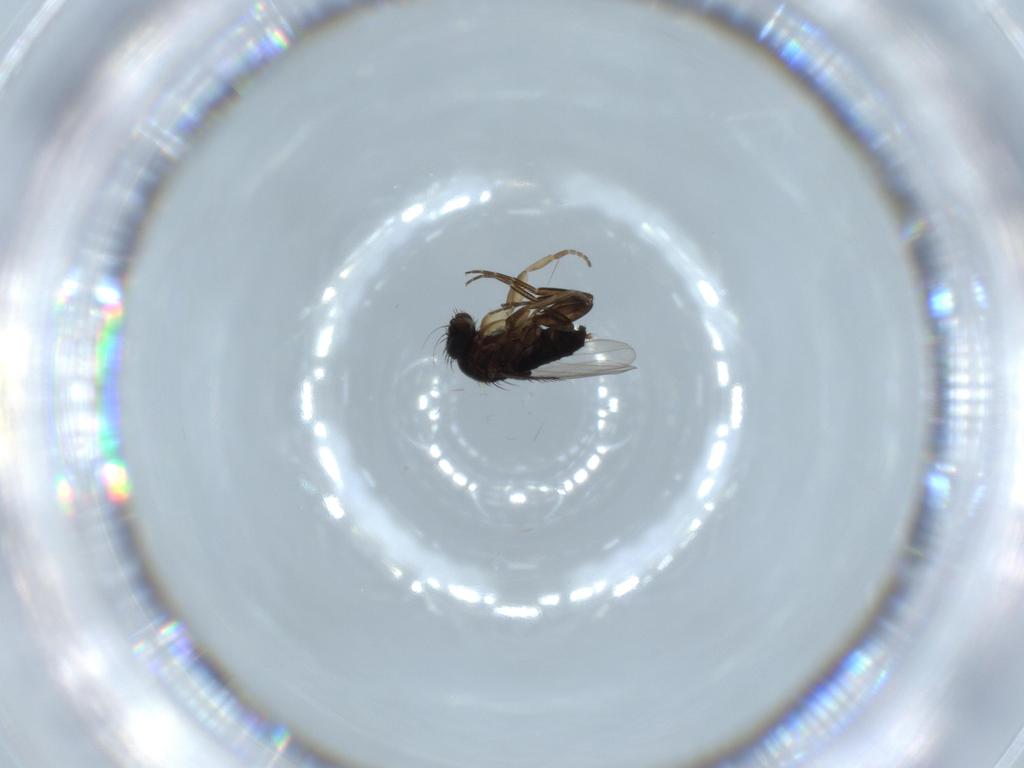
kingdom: Animalia
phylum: Arthropoda
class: Insecta
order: Diptera
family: Phoridae
